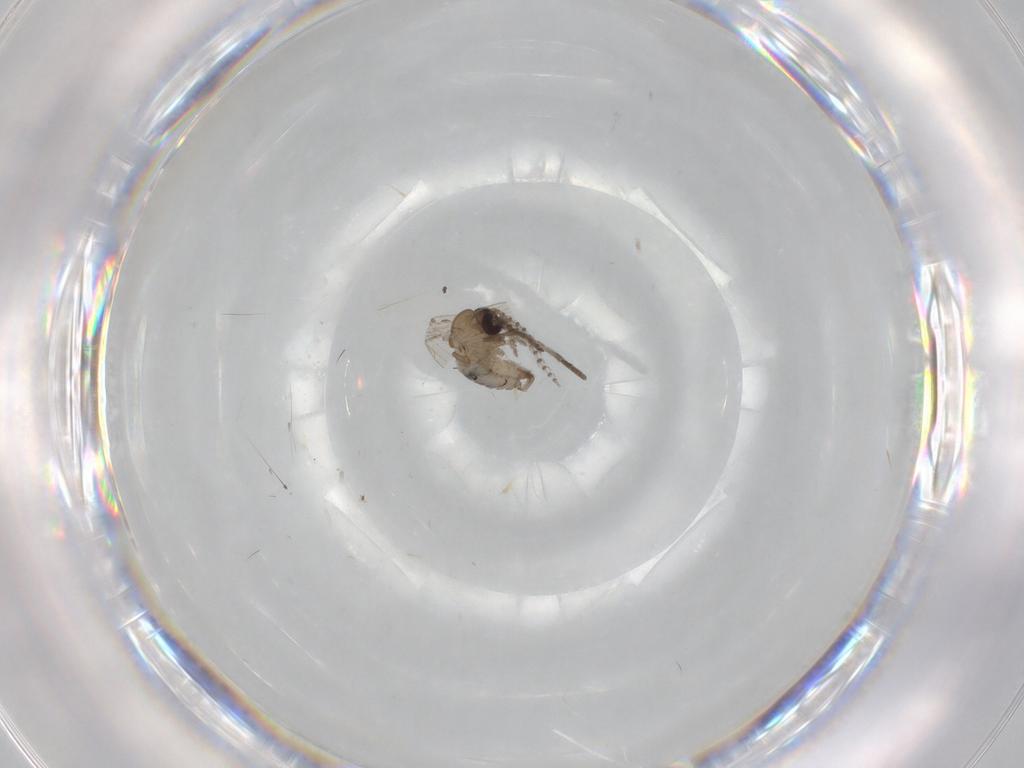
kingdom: Animalia
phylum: Arthropoda
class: Insecta
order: Diptera
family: Psychodidae
